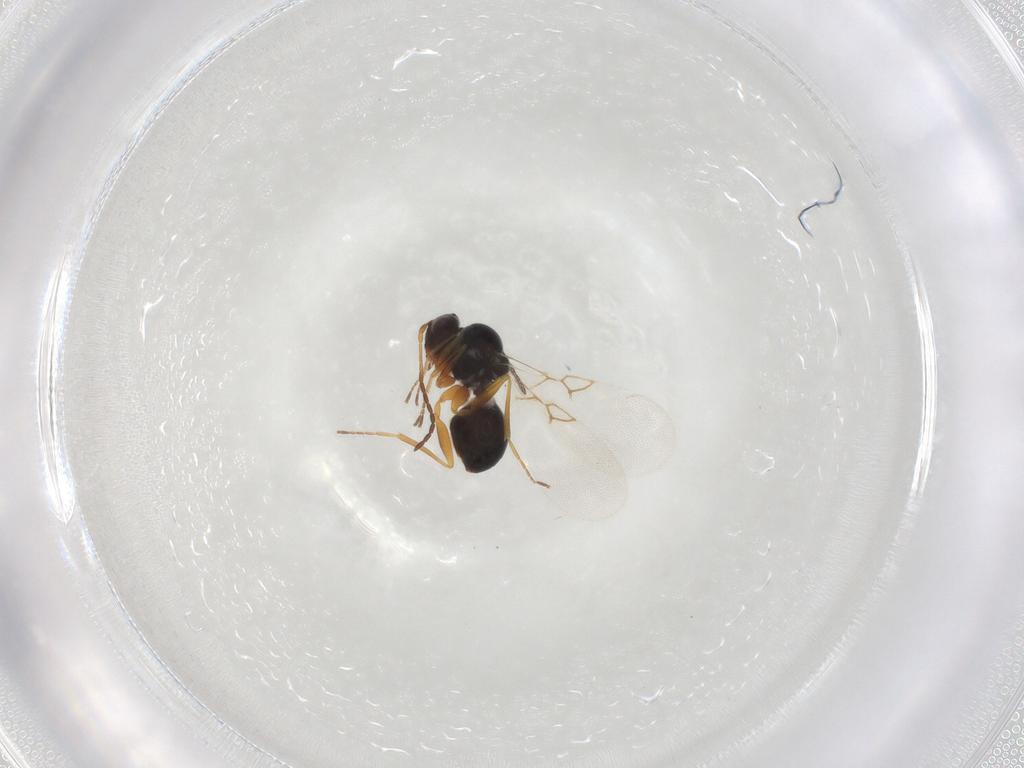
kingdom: Animalia
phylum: Arthropoda
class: Insecta
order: Hymenoptera
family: Figitidae
